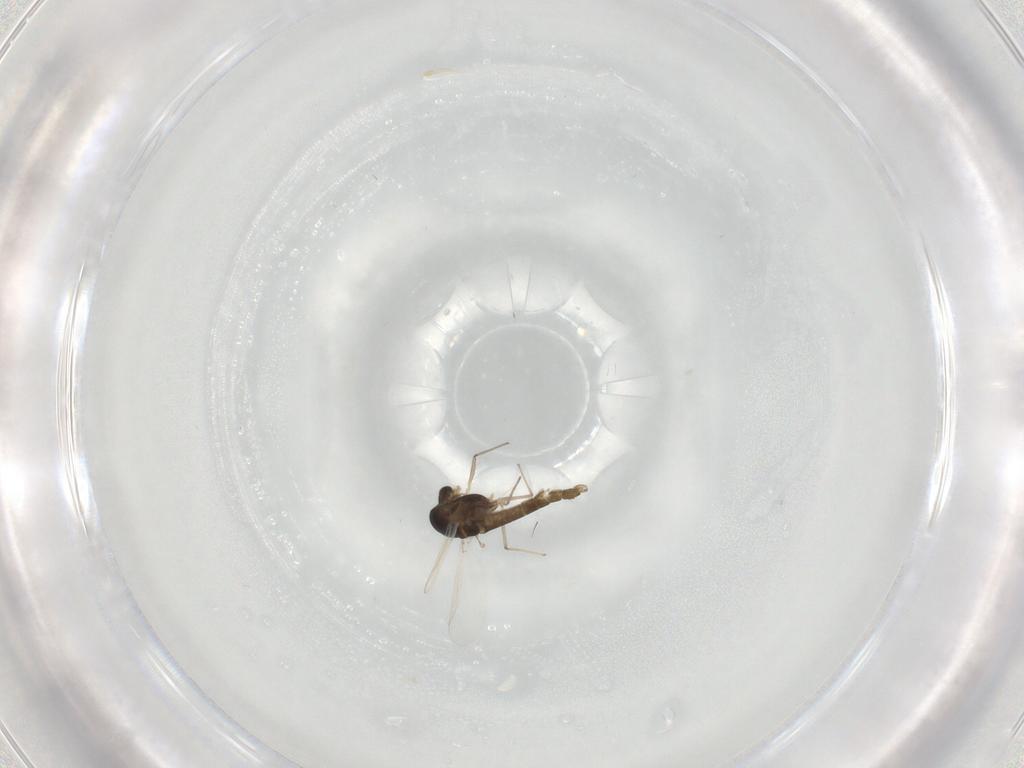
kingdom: Animalia
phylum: Arthropoda
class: Insecta
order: Diptera
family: Chironomidae
